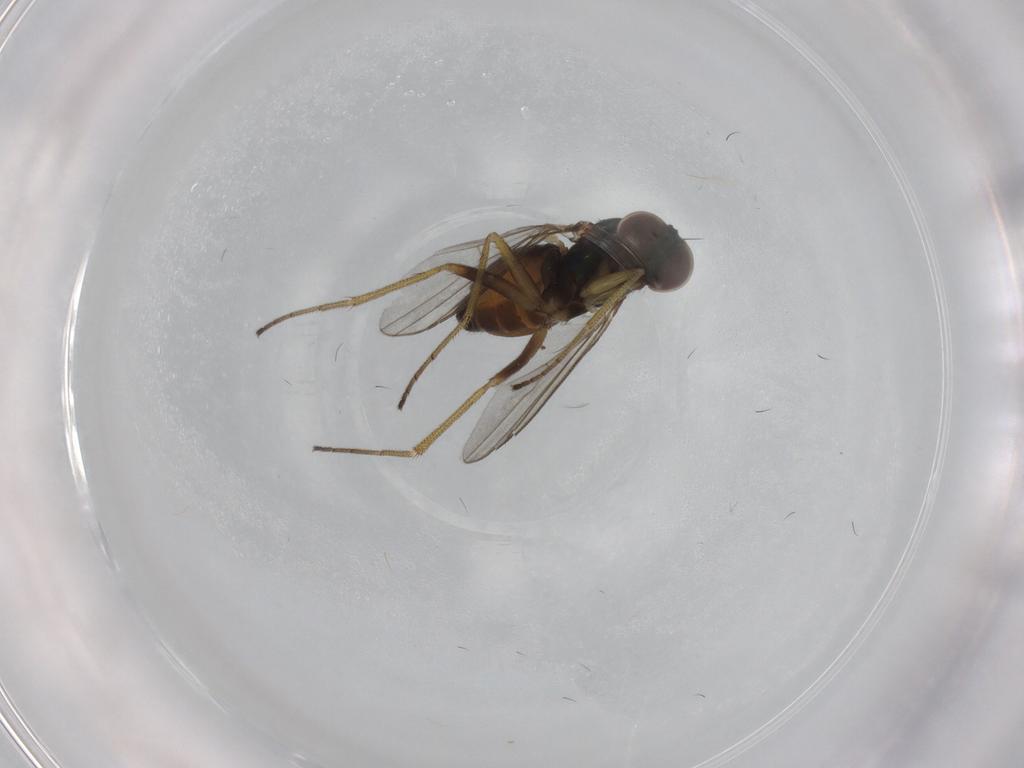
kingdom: Animalia
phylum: Arthropoda
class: Insecta
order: Diptera
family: Dolichopodidae
